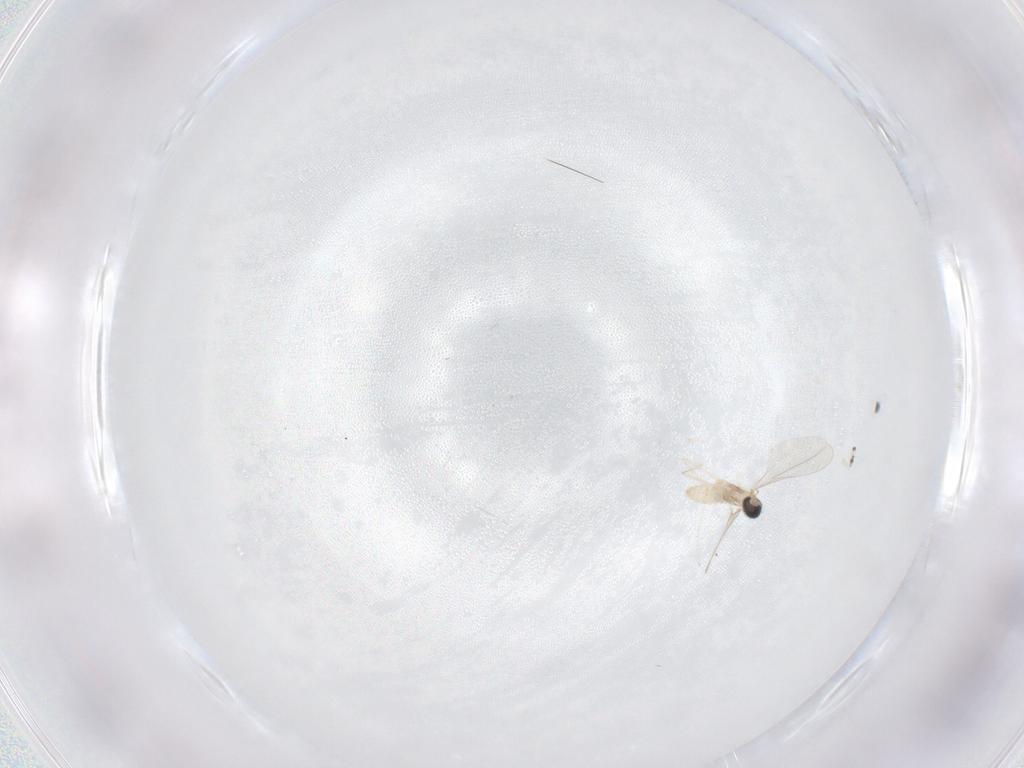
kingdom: Animalia
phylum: Arthropoda
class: Insecta
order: Diptera
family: Drosophilidae
